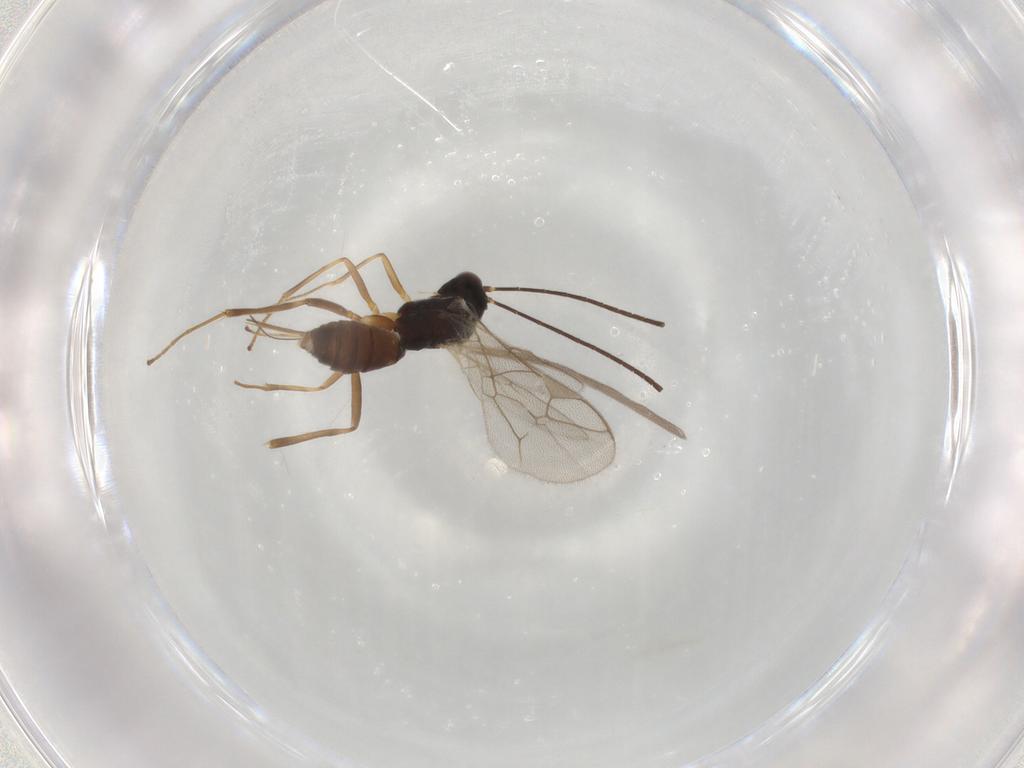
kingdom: Animalia
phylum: Arthropoda
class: Insecta
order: Hymenoptera
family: Ichneumonidae
